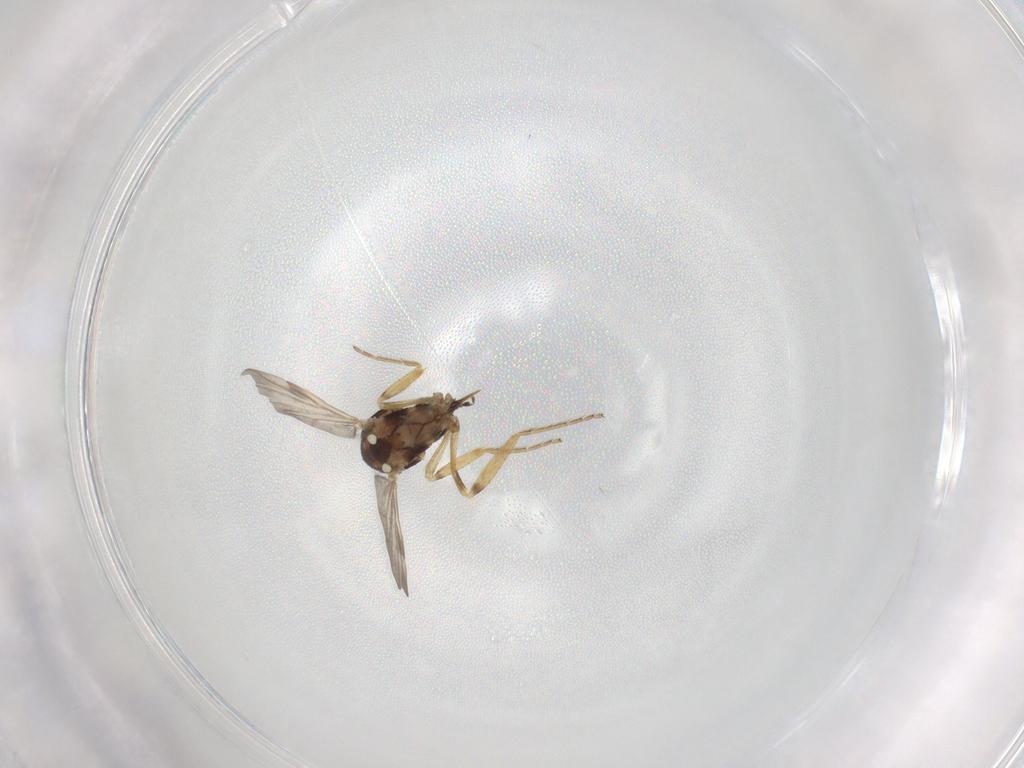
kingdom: Animalia
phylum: Arthropoda
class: Insecta
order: Diptera
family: Ceratopogonidae
